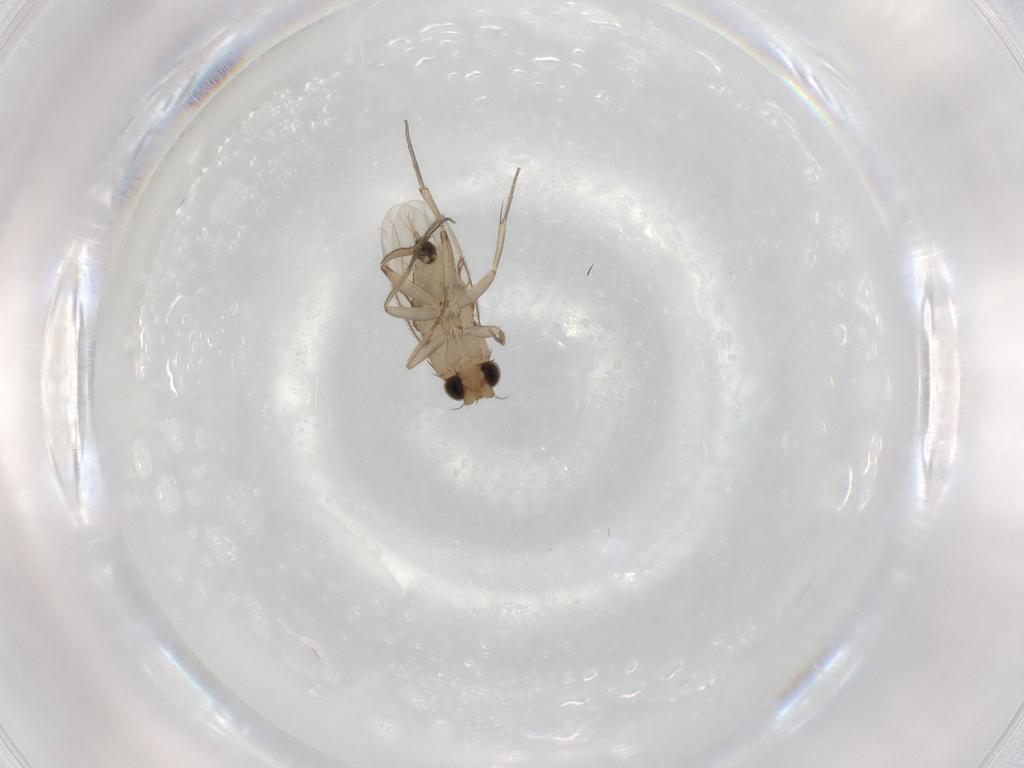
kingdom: Animalia
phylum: Arthropoda
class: Insecta
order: Diptera
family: Phoridae
